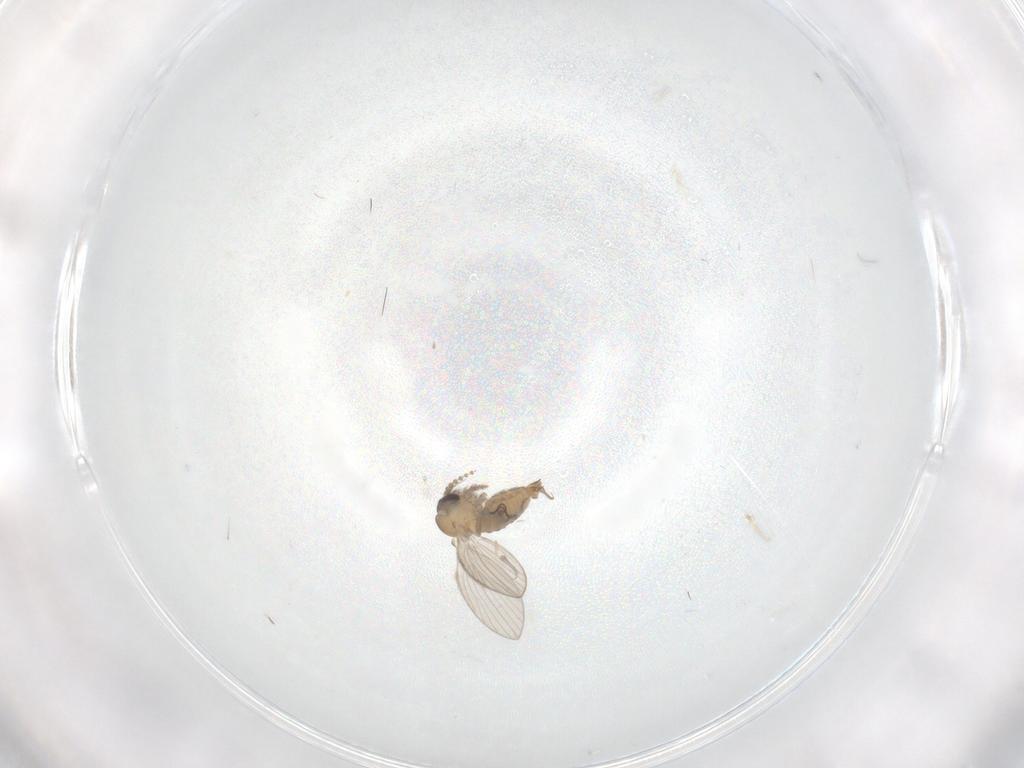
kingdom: Animalia
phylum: Arthropoda
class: Insecta
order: Diptera
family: Psychodidae
